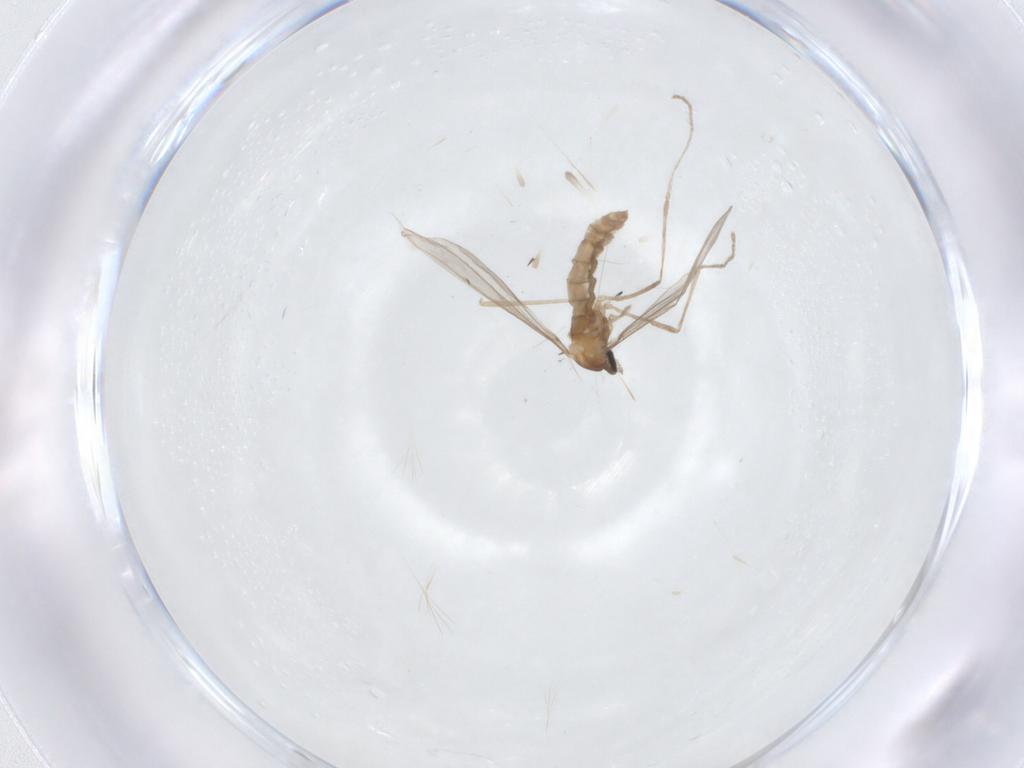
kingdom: Animalia
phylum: Arthropoda
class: Insecta
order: Diptera
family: Cecidomyiidae
